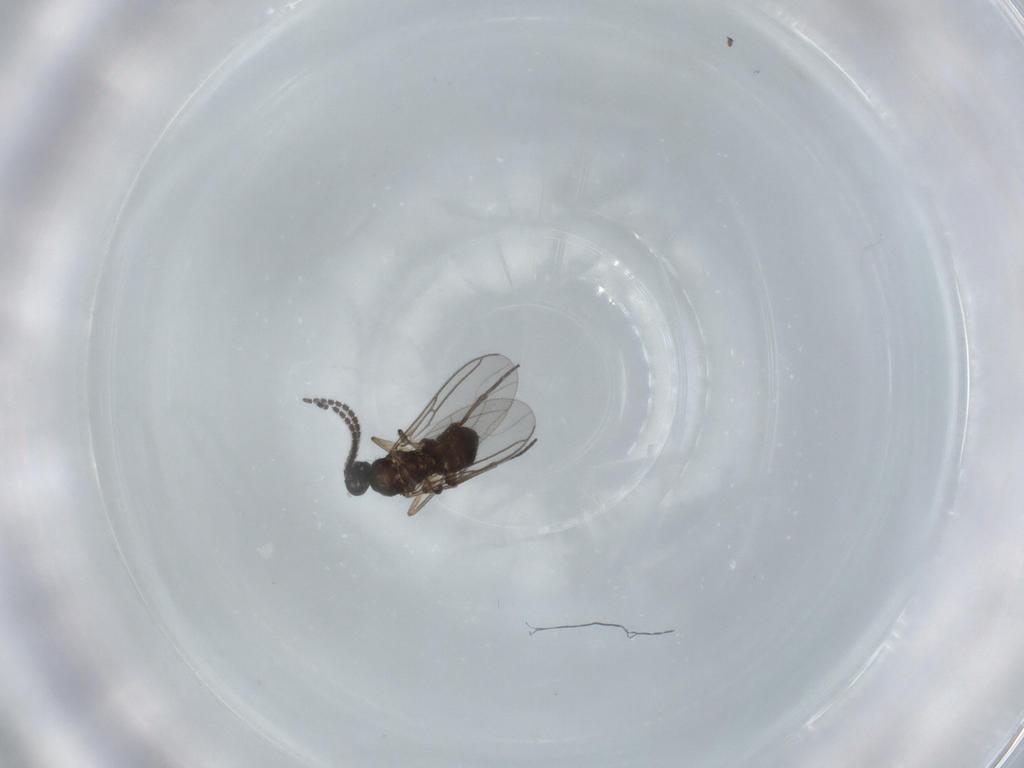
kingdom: Animalia
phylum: Arthropoda
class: Insecta
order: Diptera
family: Sciaridae
